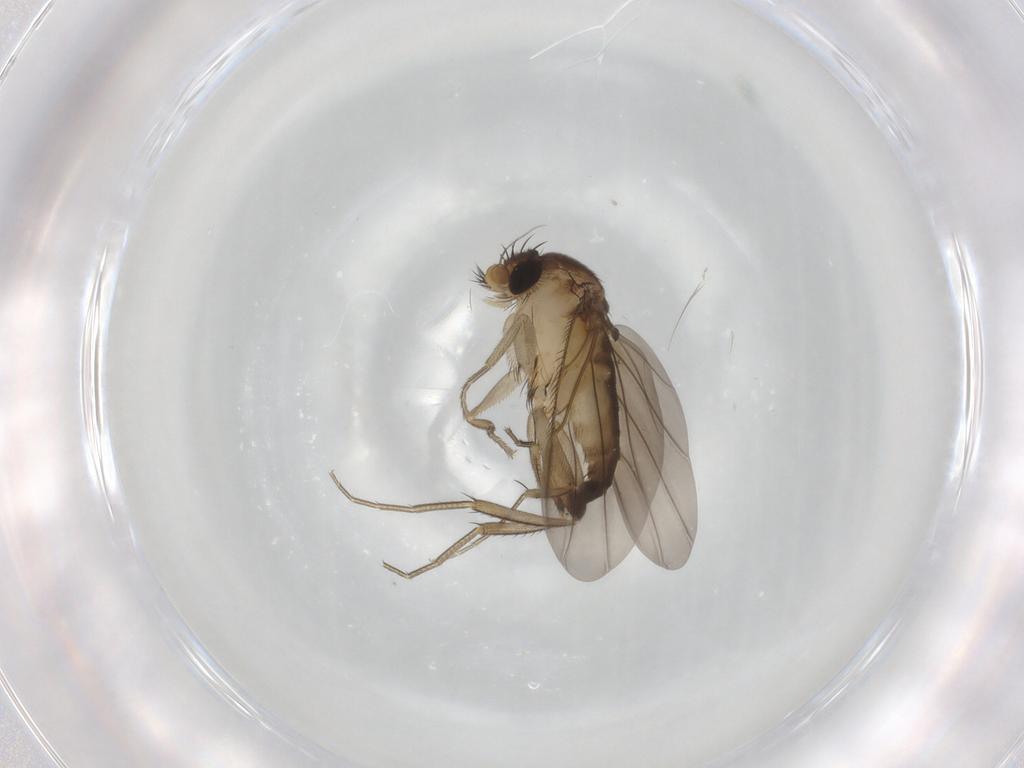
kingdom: Animalia
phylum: Arthropoda
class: Insecta
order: Diptera
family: Phoridae
